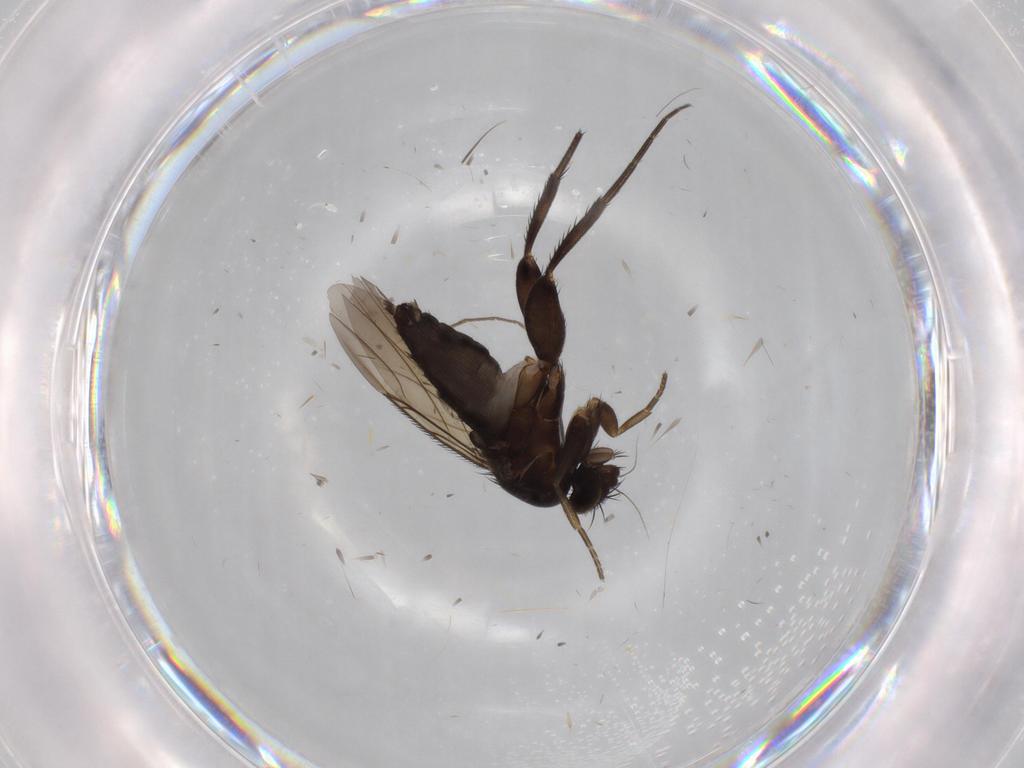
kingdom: Animalia
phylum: Arthropoda
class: Insecta
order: Diptera
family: Phoridae
